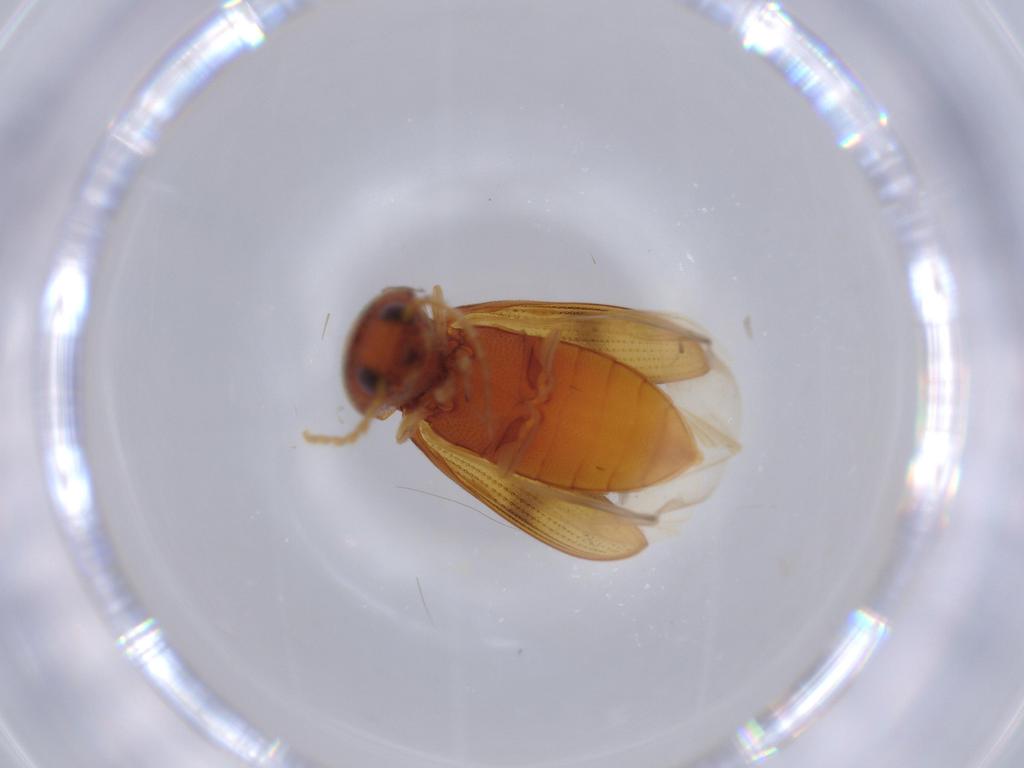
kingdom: Animalia
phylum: Arthropoda
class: Insecta
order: Coleoptera
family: Elateridae
